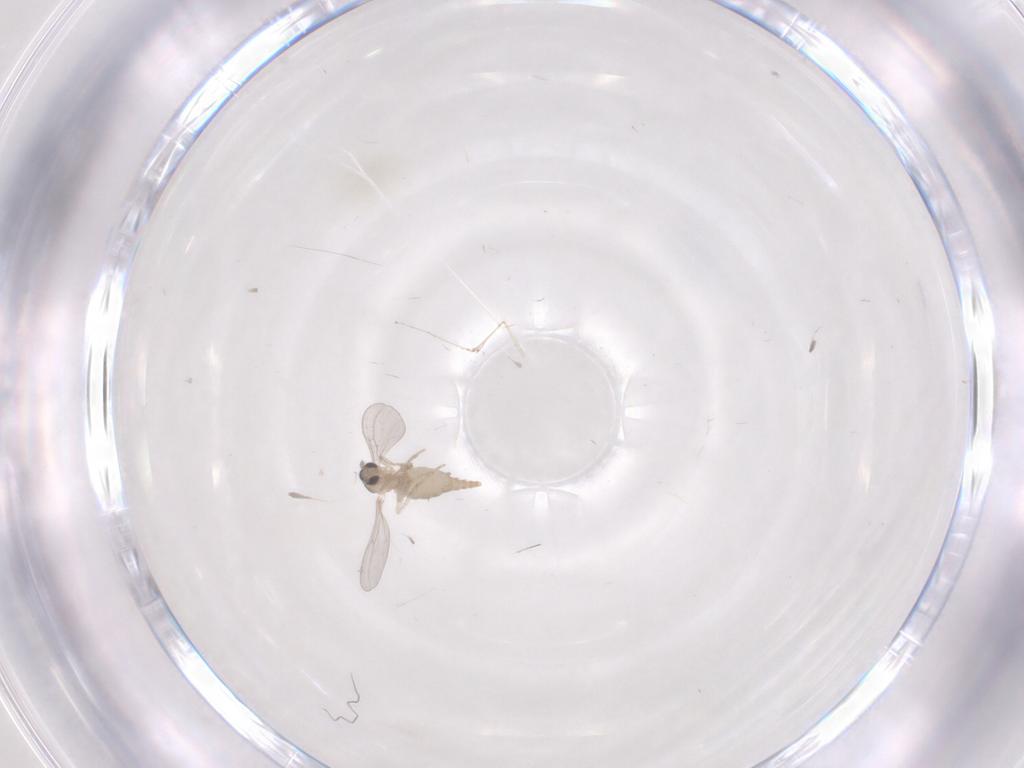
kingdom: Animalia
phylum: Arthropoda
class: Insecta
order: Diptera
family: Cecidomyiidae
